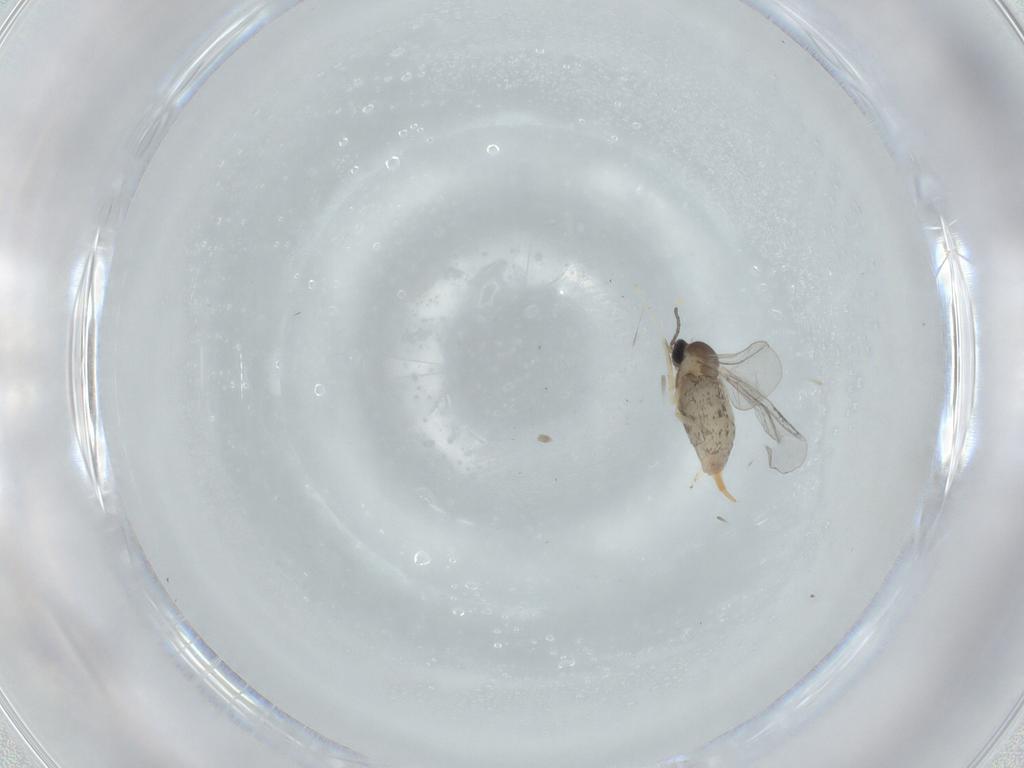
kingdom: Animalia
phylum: Arthropoda
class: Insecta
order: Diptera
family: Cecidomyiidae
